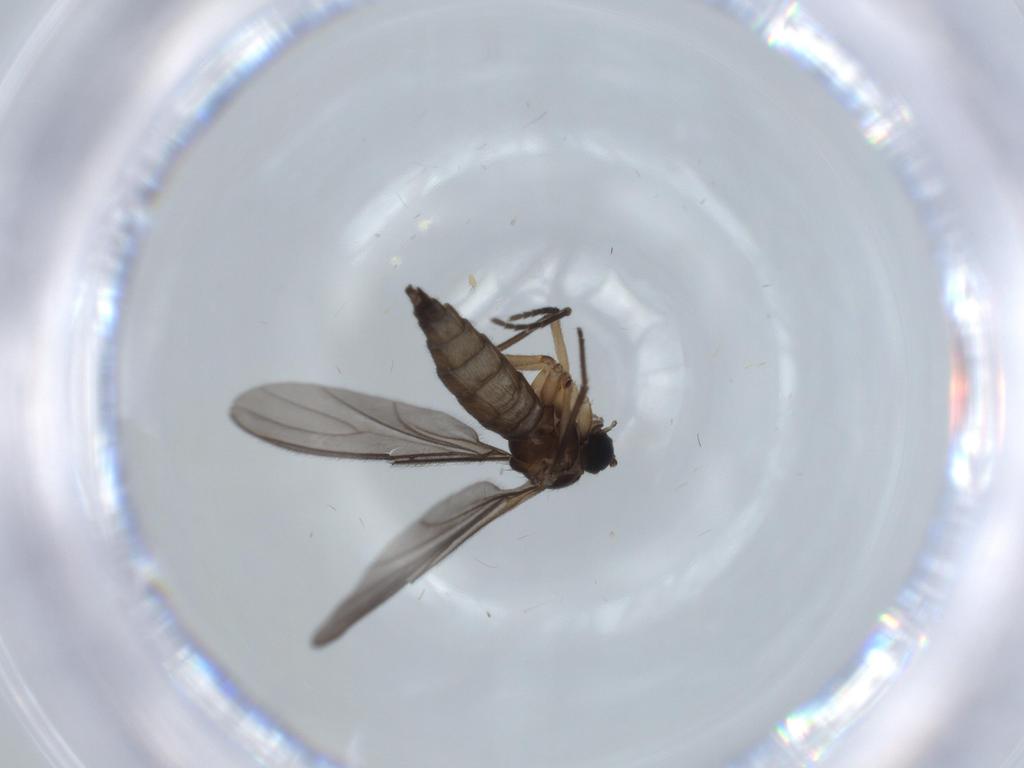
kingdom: Animalia
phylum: Arthropoda
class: Insecta
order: Diptera
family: Sciaridae
